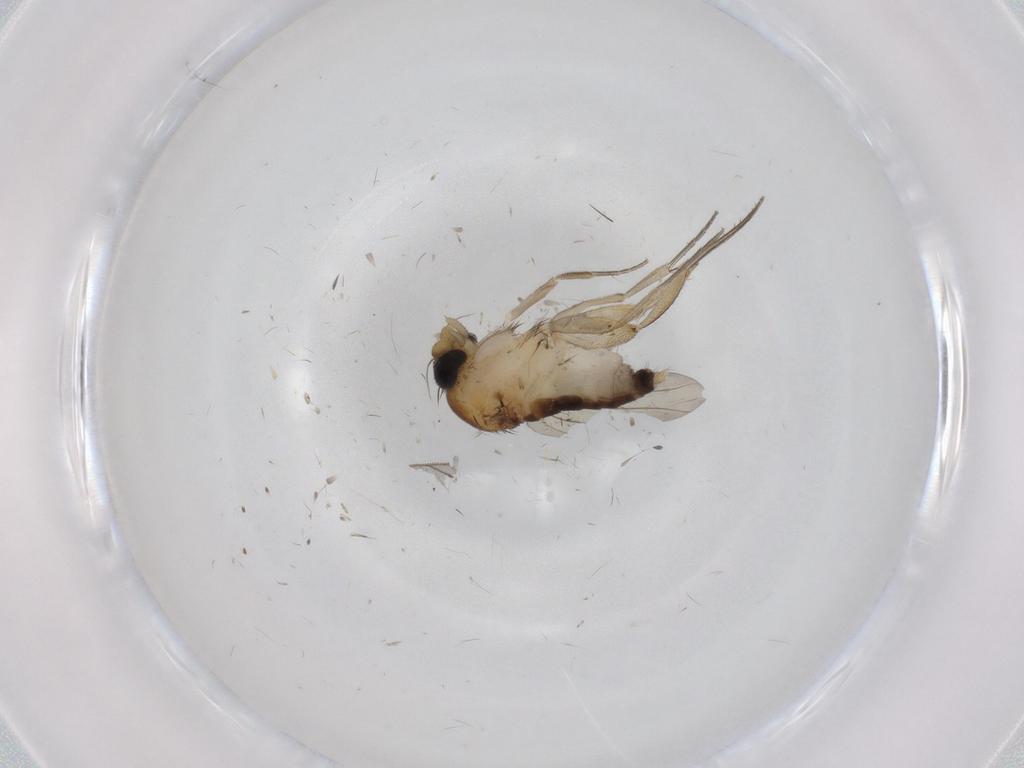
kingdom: Animalia
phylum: Arthropoda
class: Insecta
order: Diptera
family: Phoridae
